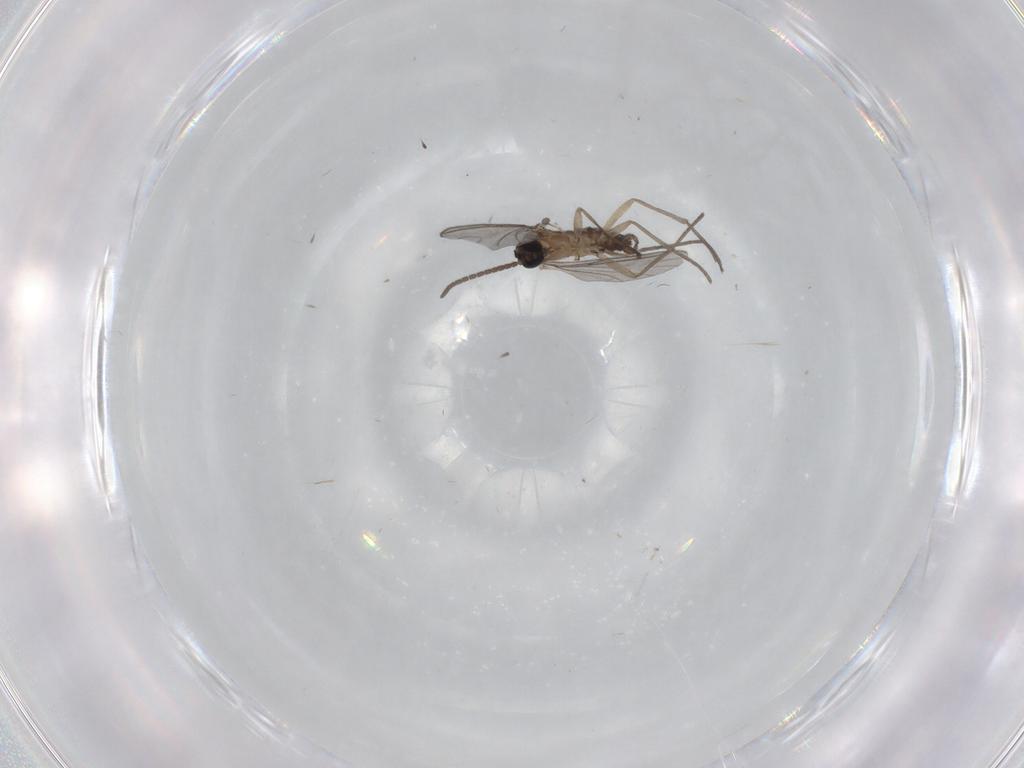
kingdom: Animalia
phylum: Arthropoda
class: Insecta
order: Diptera
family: Sciaridae
